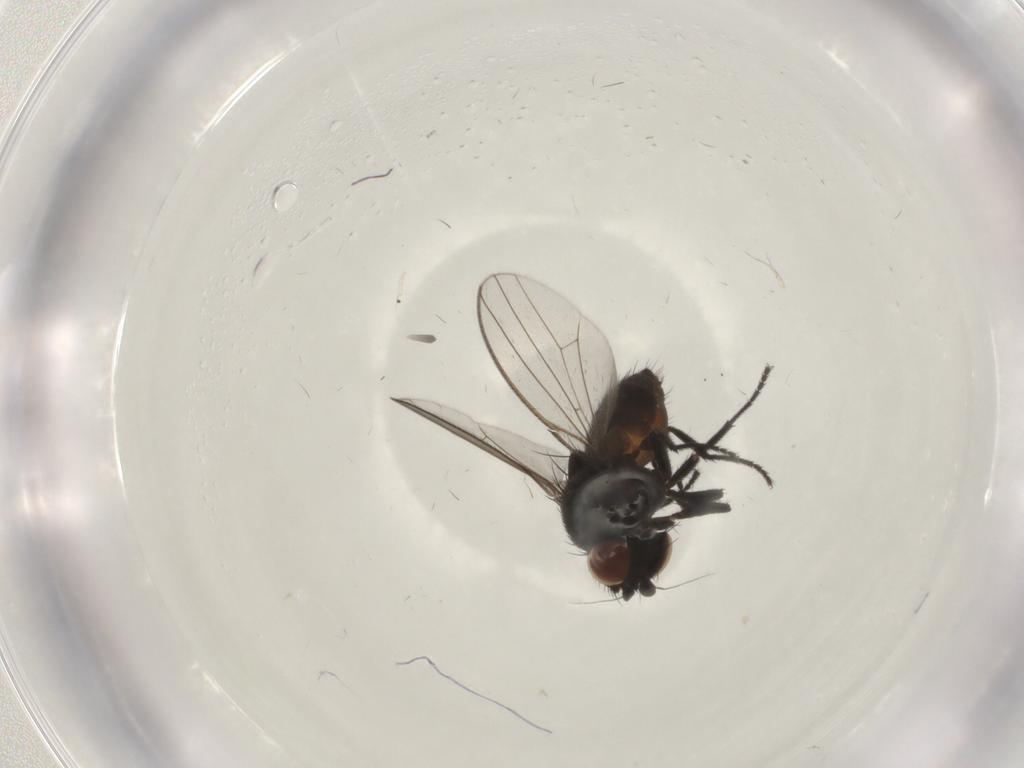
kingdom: Animalia
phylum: Arthropoda
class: Insecta
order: Diptera
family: Milichiidae
